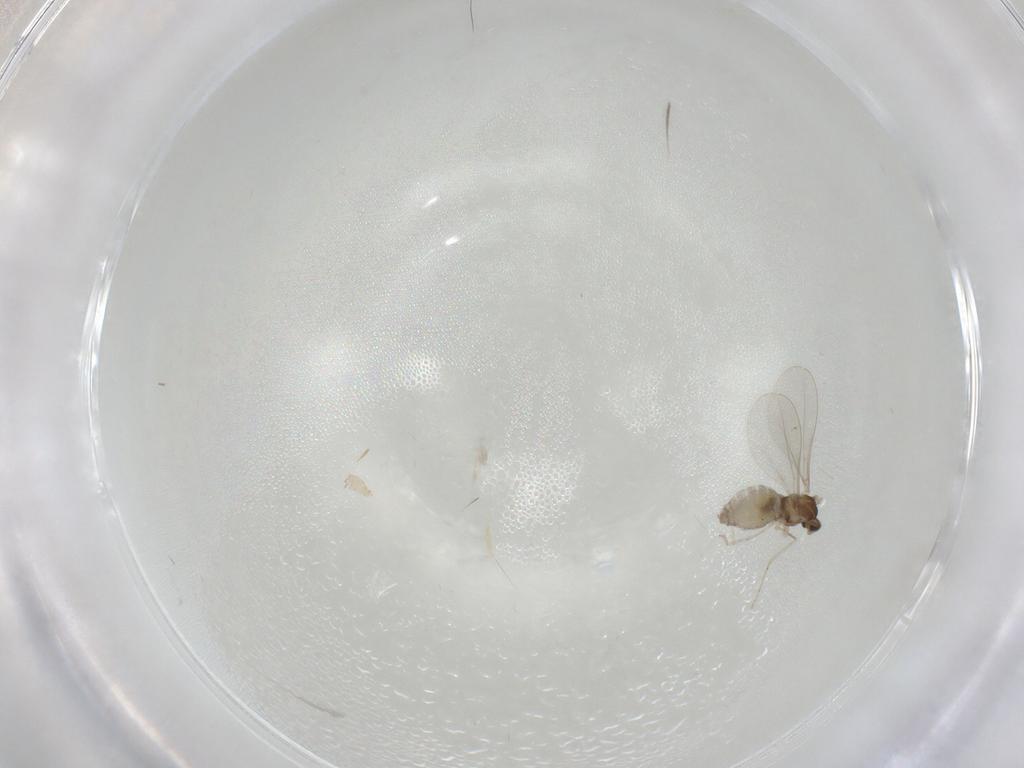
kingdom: Animalia
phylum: Arthropoda
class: Insecta
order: Diptera
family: Cecidomyiidae
